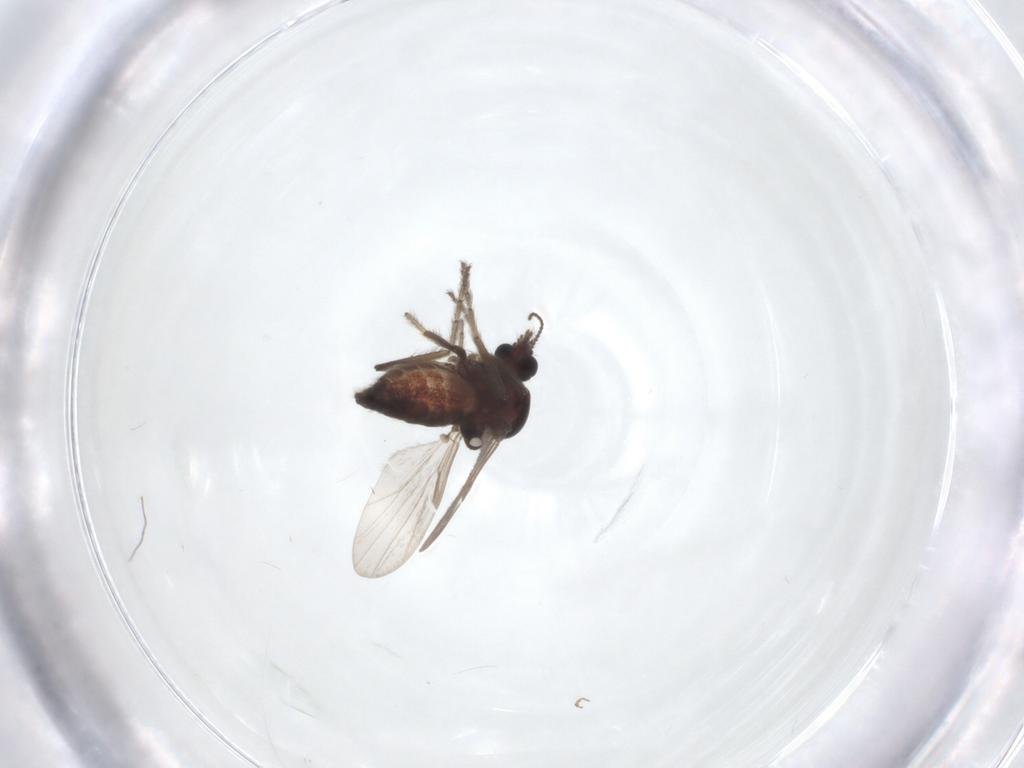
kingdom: Animalia
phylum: Arthropoda
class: Insecta
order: Diptera
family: Ceratopogonidae
